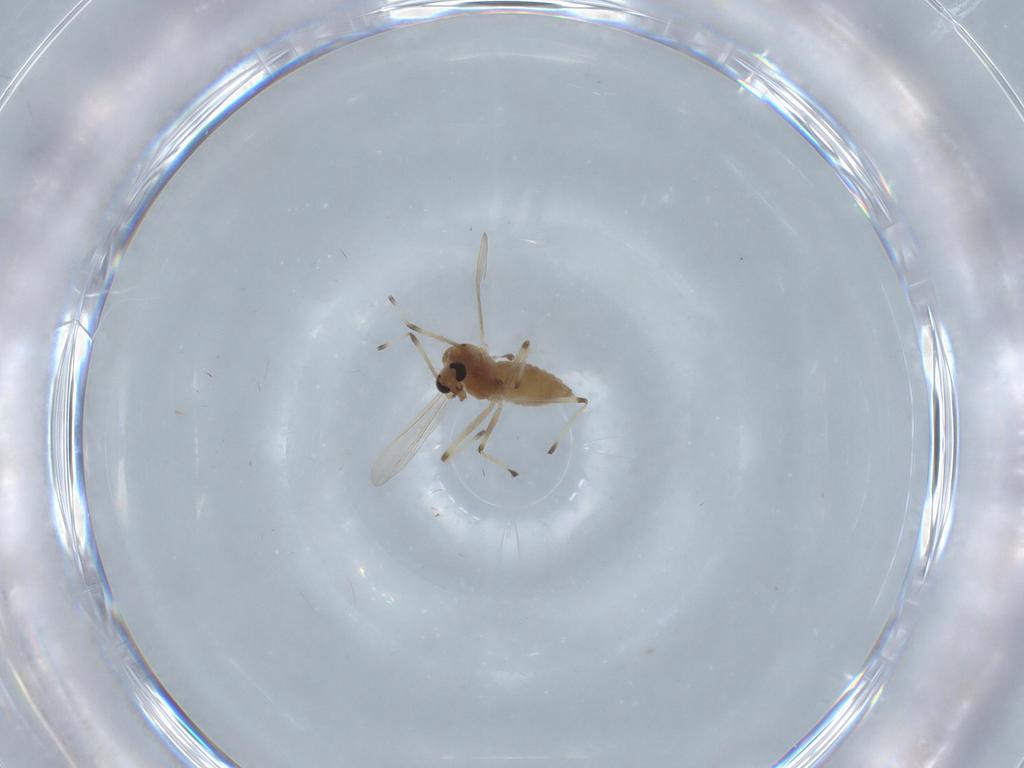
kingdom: Animalia
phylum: Arthropoda
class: Insecta
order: Diptera
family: Chironomidae
